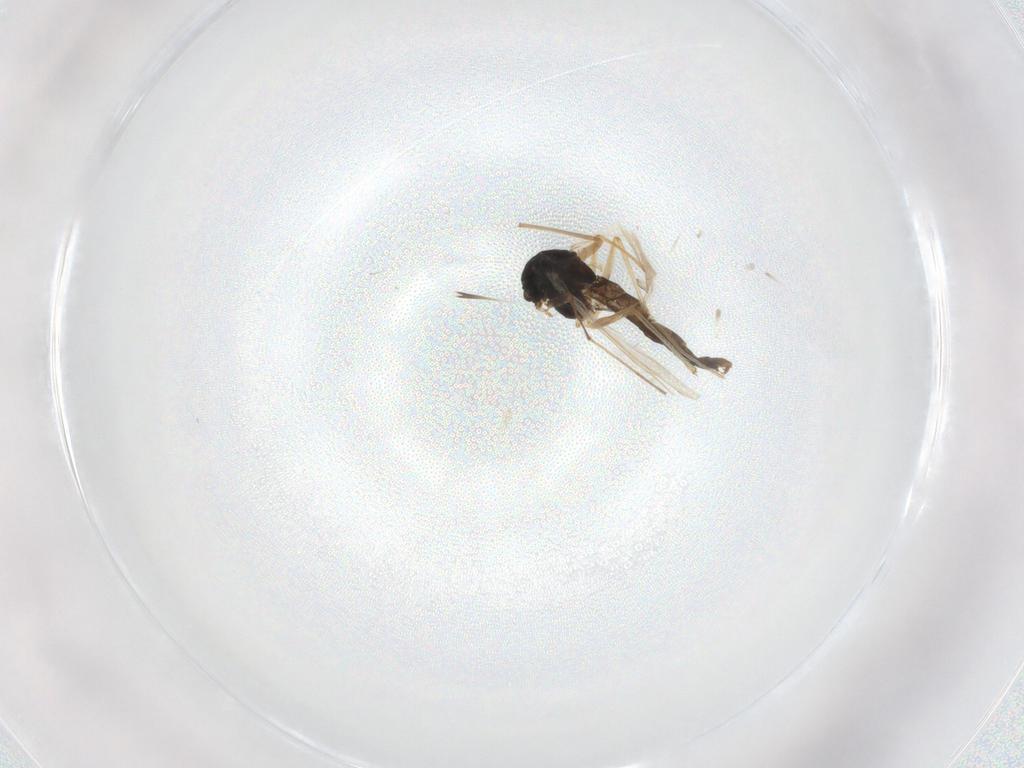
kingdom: Animalia
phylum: Arthropoda
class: Insecta
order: Diptera
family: Chironomidae
